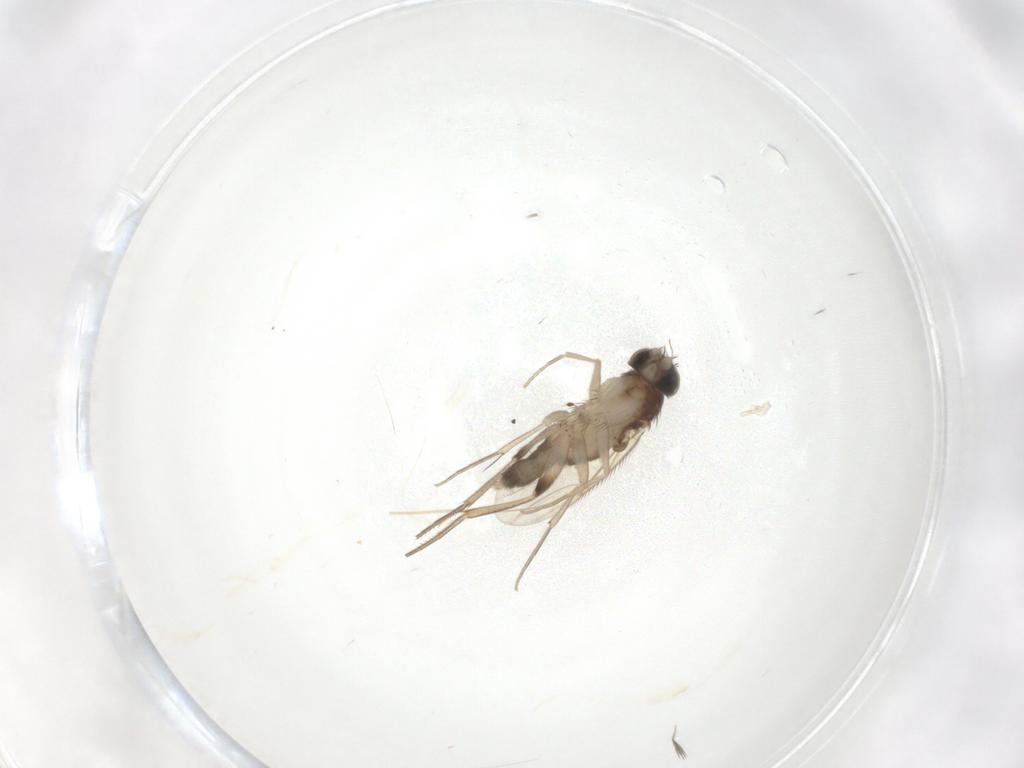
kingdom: Animalia
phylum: Arthropoda
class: Insecta
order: Diptera
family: Phoridae
